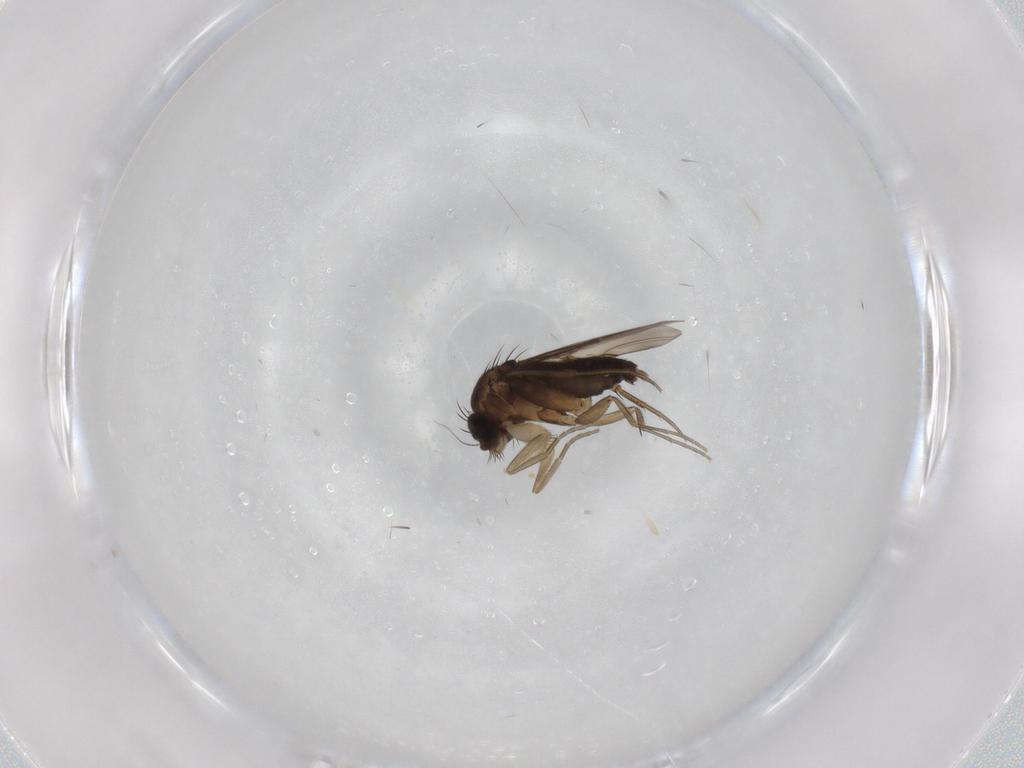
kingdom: Animalia
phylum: Arthropoda
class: Insecta
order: Diptera
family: Phoridae
